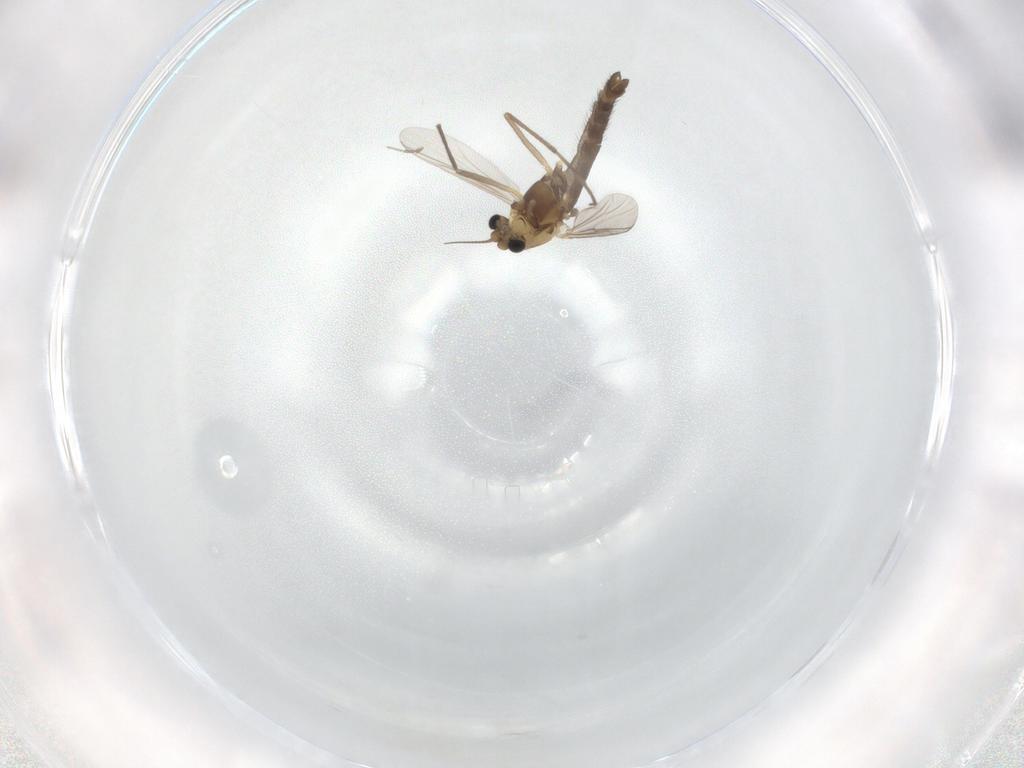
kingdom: Animalia
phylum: Arthropoda
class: Insecta
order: Diptera
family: Chironomidae
